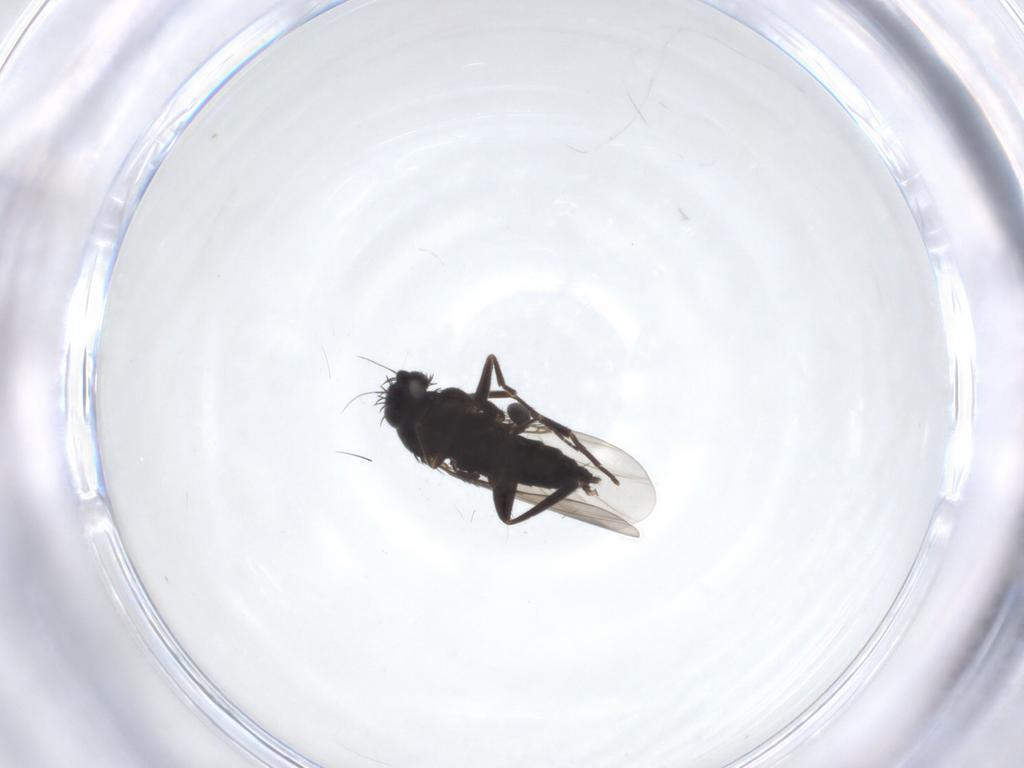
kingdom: Animalia
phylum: Arthropoda
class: Insecta
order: Diptera
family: Phoridae
